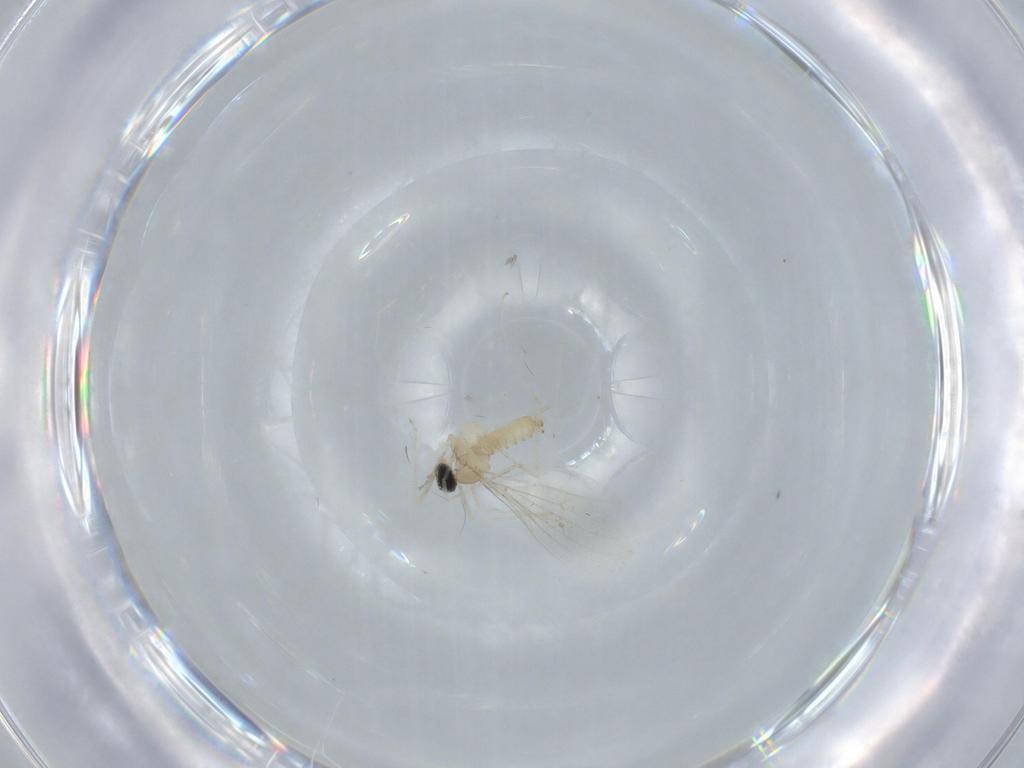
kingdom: Animalia
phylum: Arthropoda
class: Insecta
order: Diptera
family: Cecidomyiidae
